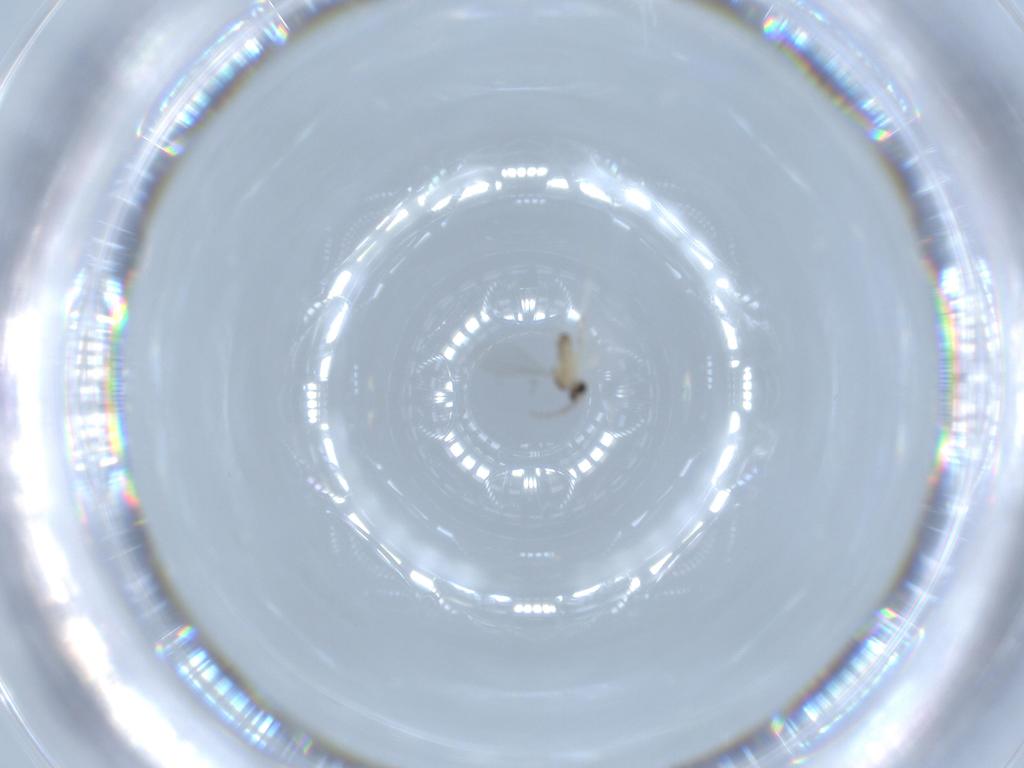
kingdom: Animalia
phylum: Arthropoda
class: Insecta
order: Diptera
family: Cecidomyiidae
